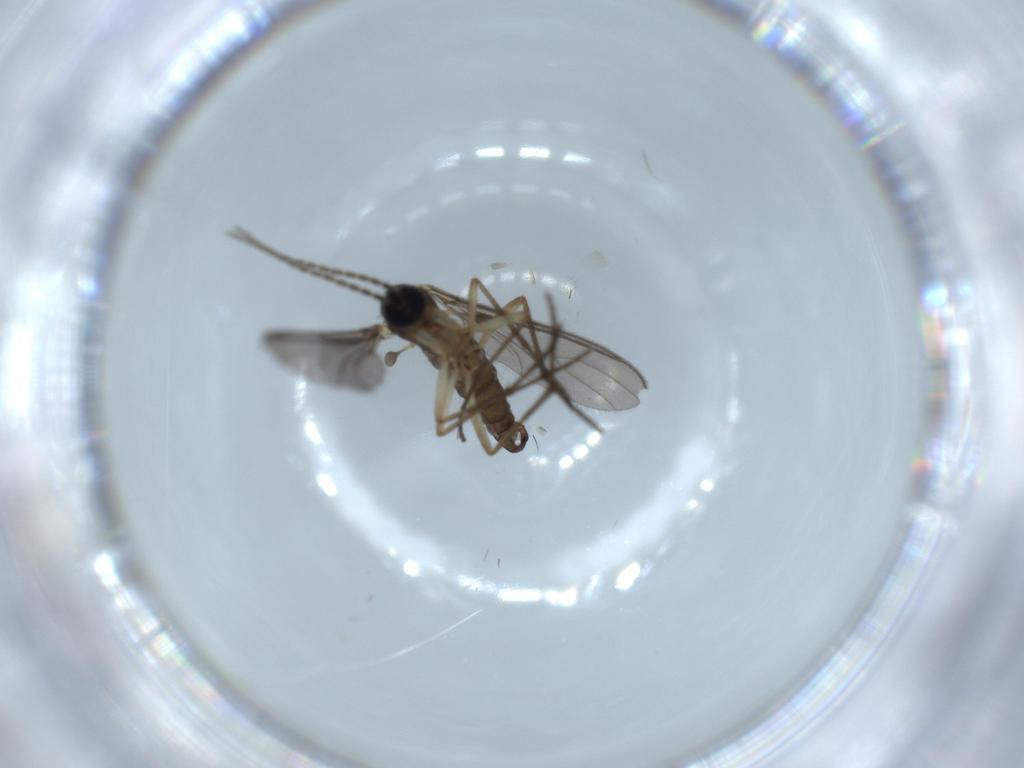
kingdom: Animalia
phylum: Arthropoda
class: Insecta
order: Diptera
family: Sciaridae
